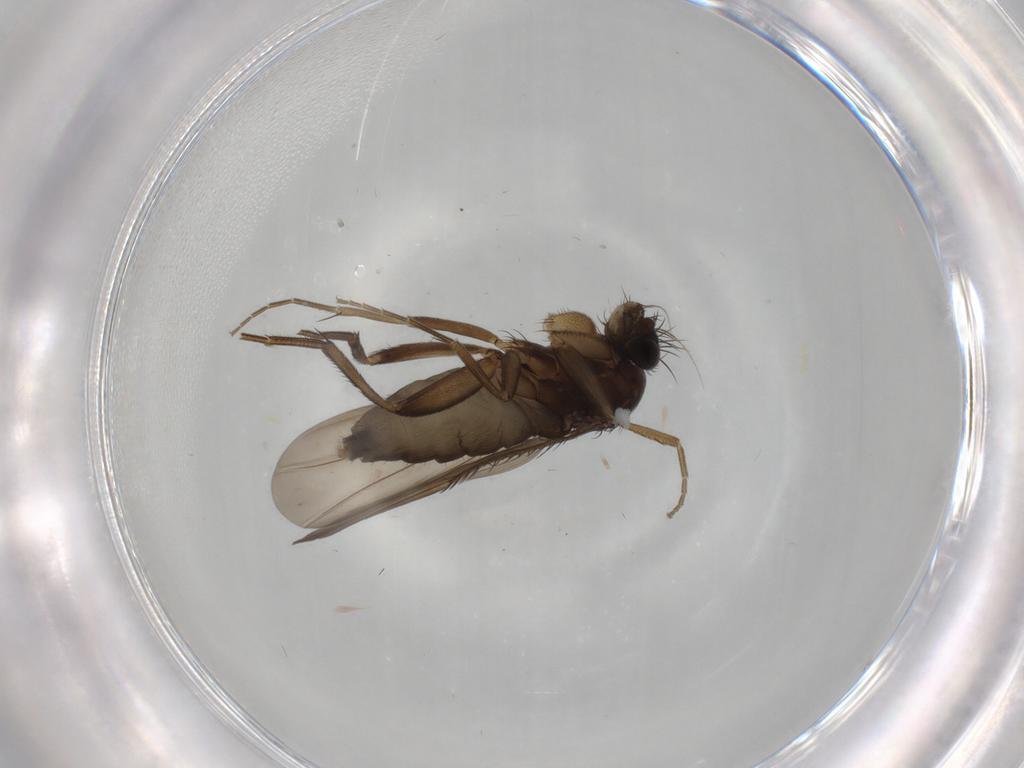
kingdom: Animalia
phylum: Arthropoda
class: Insecta
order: Diptera
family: Phoridae
